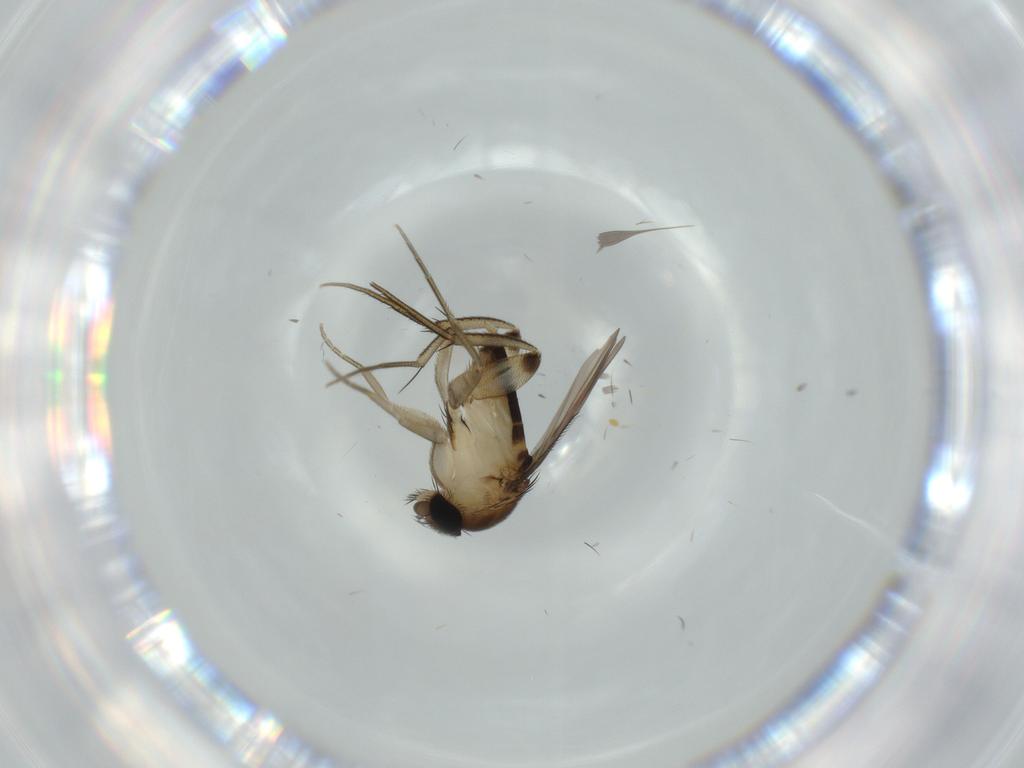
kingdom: Animalia
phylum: Arthropoda
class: Insecta
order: Diptera
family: Phoridae
